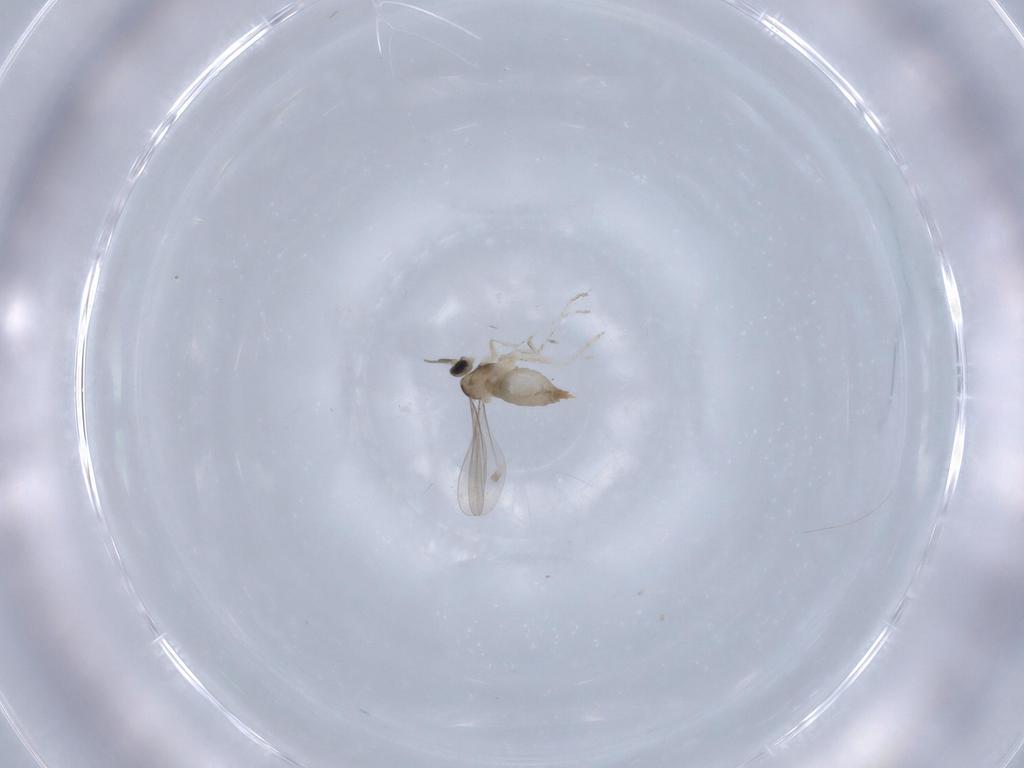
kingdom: Animalia
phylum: Arthropoda
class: Insecta
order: Diptera
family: Cecidomyiidae
